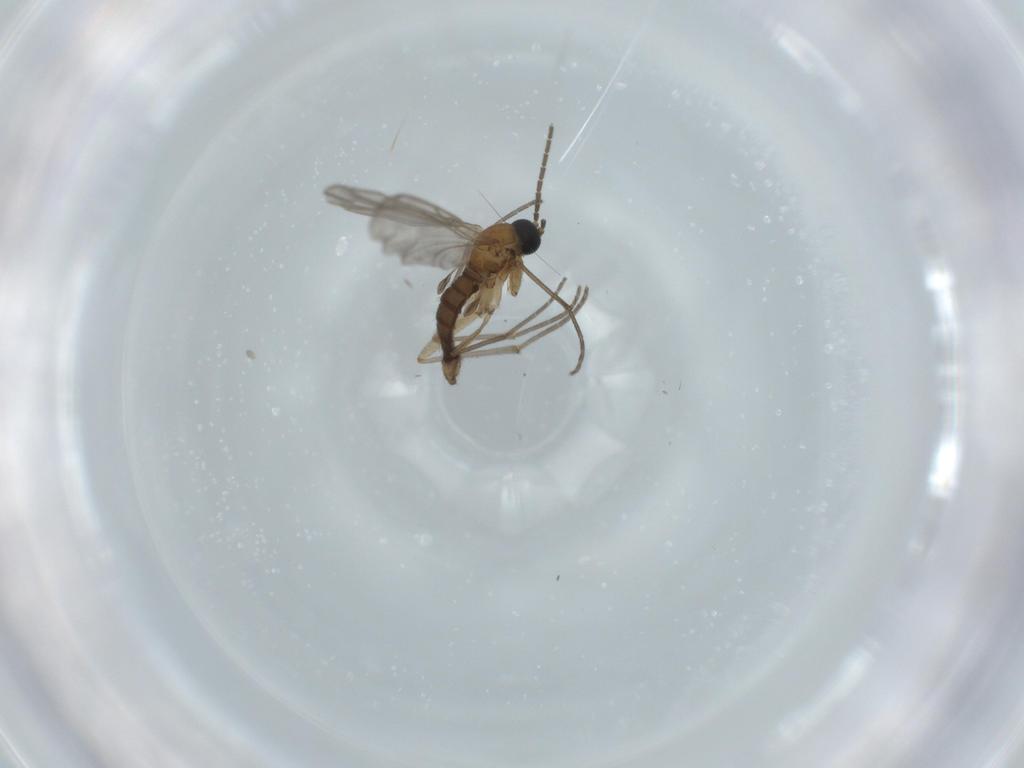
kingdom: Animalia
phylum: Arthropoda
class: Insecta
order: Diptera
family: Sciaridae
